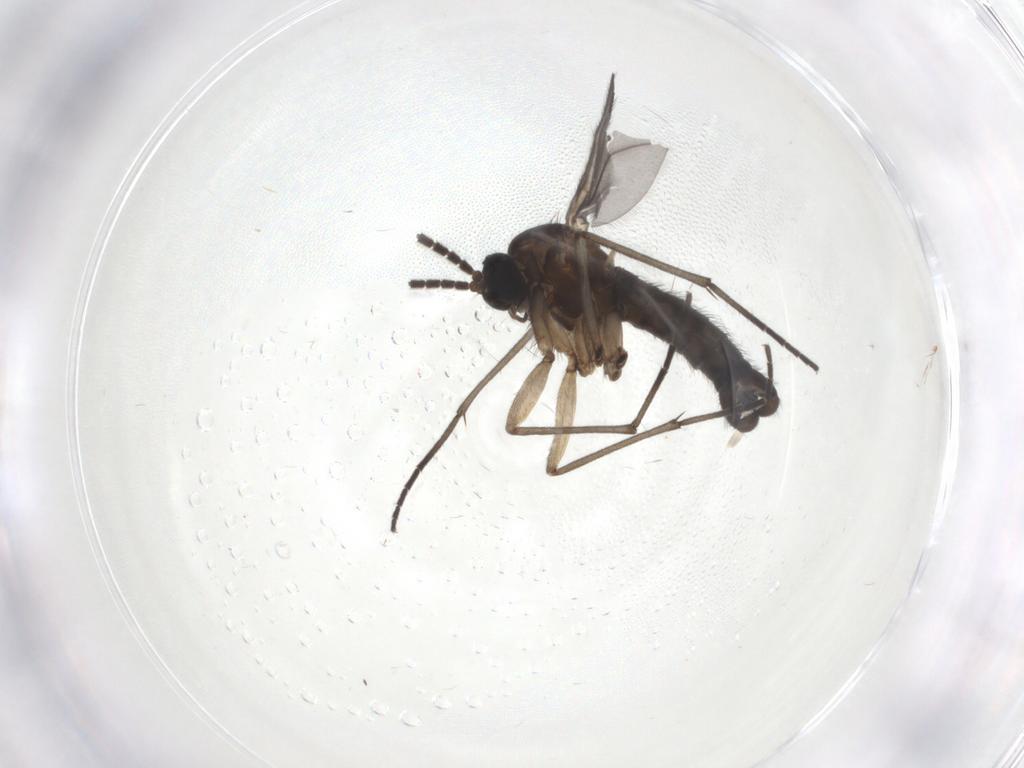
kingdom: Animalia
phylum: Arthropoda
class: Insecta
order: Diptera
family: Sciaridae
